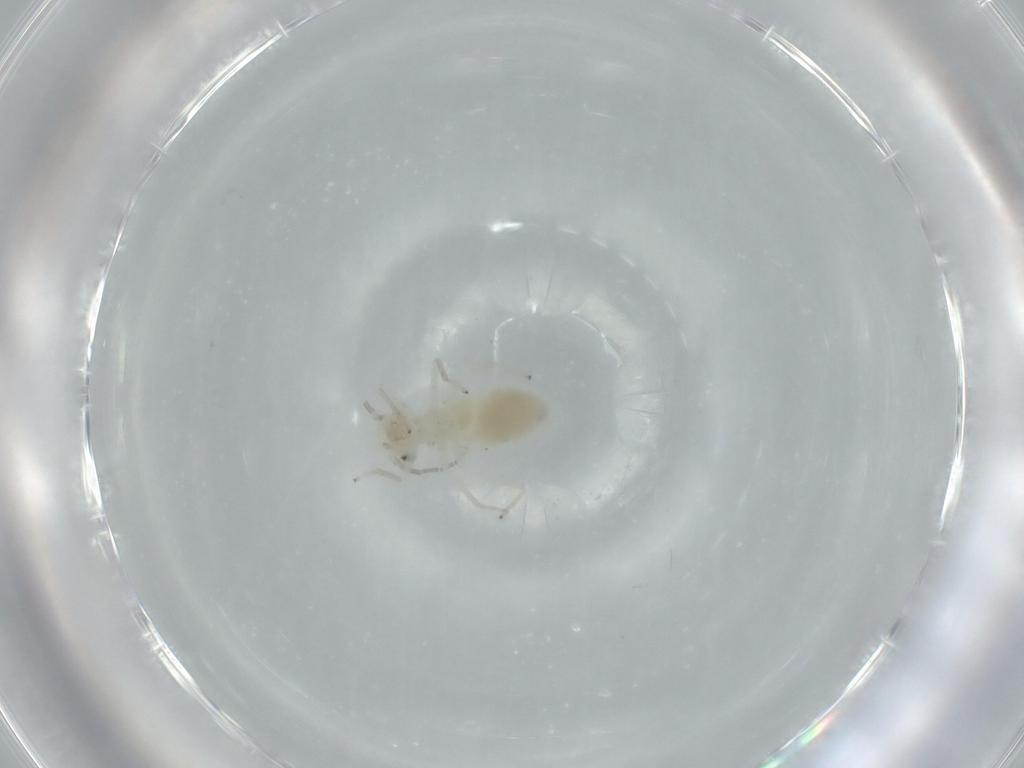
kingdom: Animalia
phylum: Arthropoda
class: Insecta
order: Psocodea
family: Caeciliusidae
